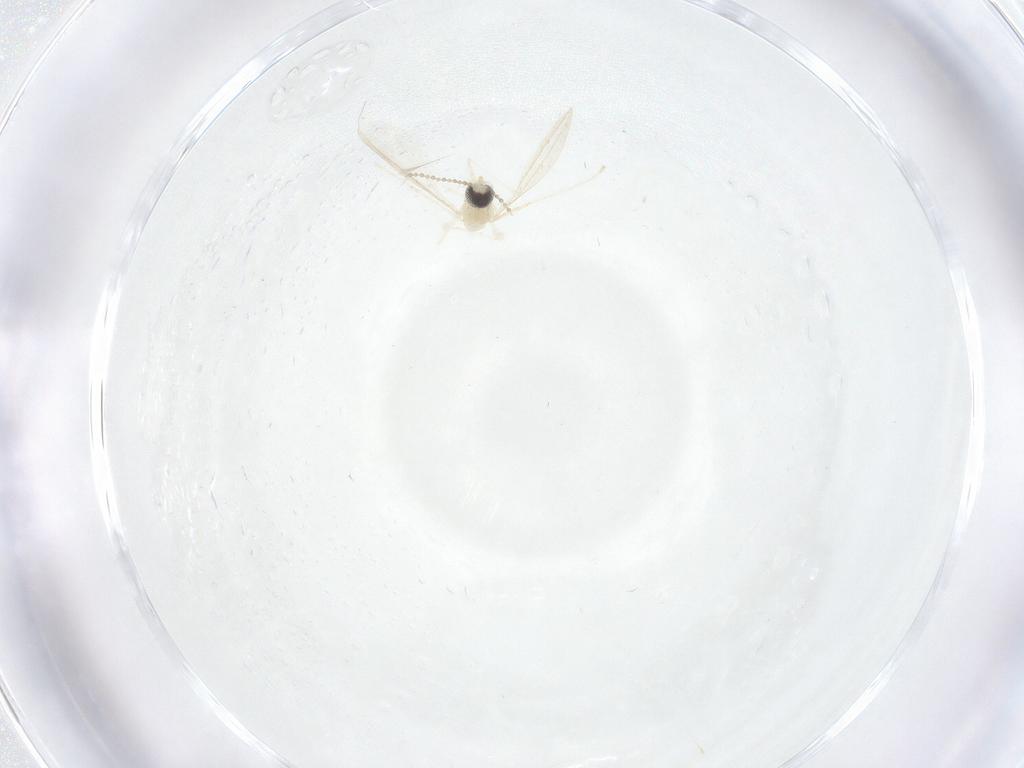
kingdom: Animalia
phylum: Arthropoda
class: Insecta
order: Diptera
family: Cecidomyiidae
